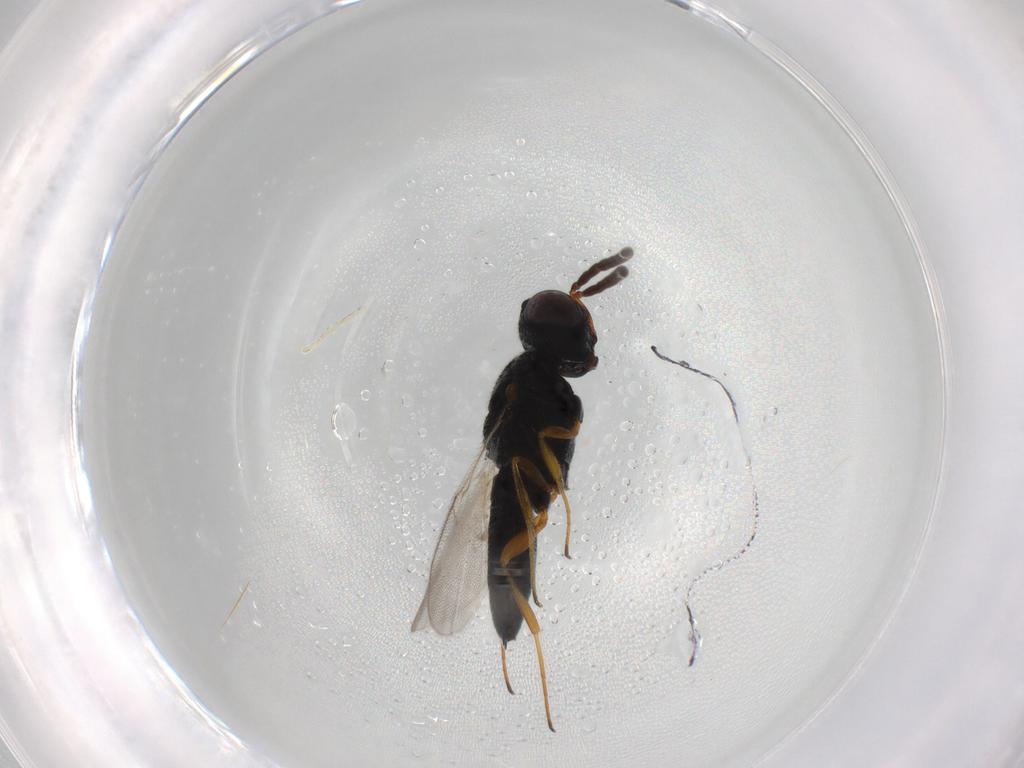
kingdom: Animalia
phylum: Arthropoda
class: Insecta
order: Hymenoptera
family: Scelionidae
